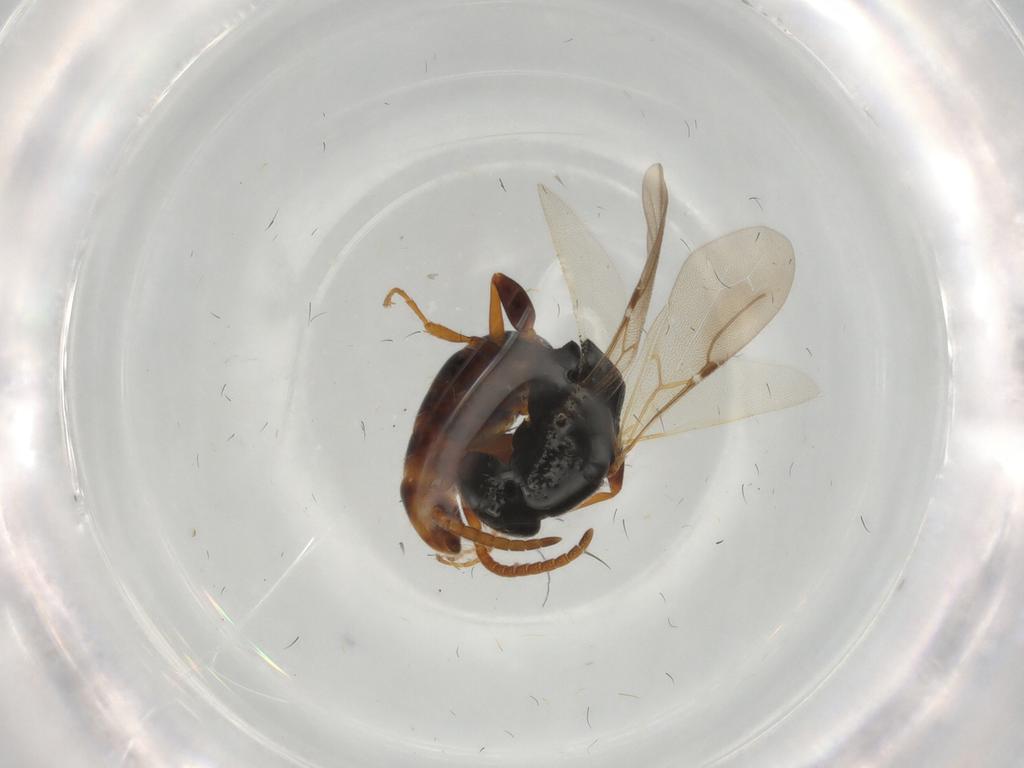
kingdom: Animalia
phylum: Arthropoda
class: Insecta
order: Hymenoptera
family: Bethylidae
